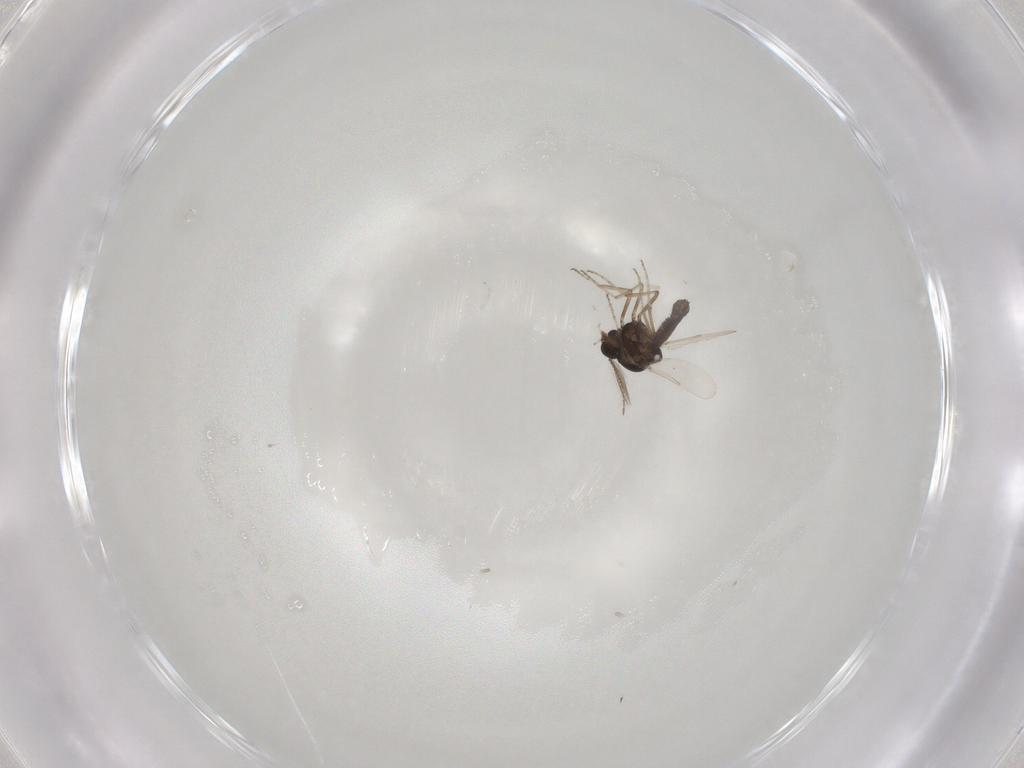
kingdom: Animalia
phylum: Arthropoda
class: Insecta
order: Diptera
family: Ceratopogonidae
